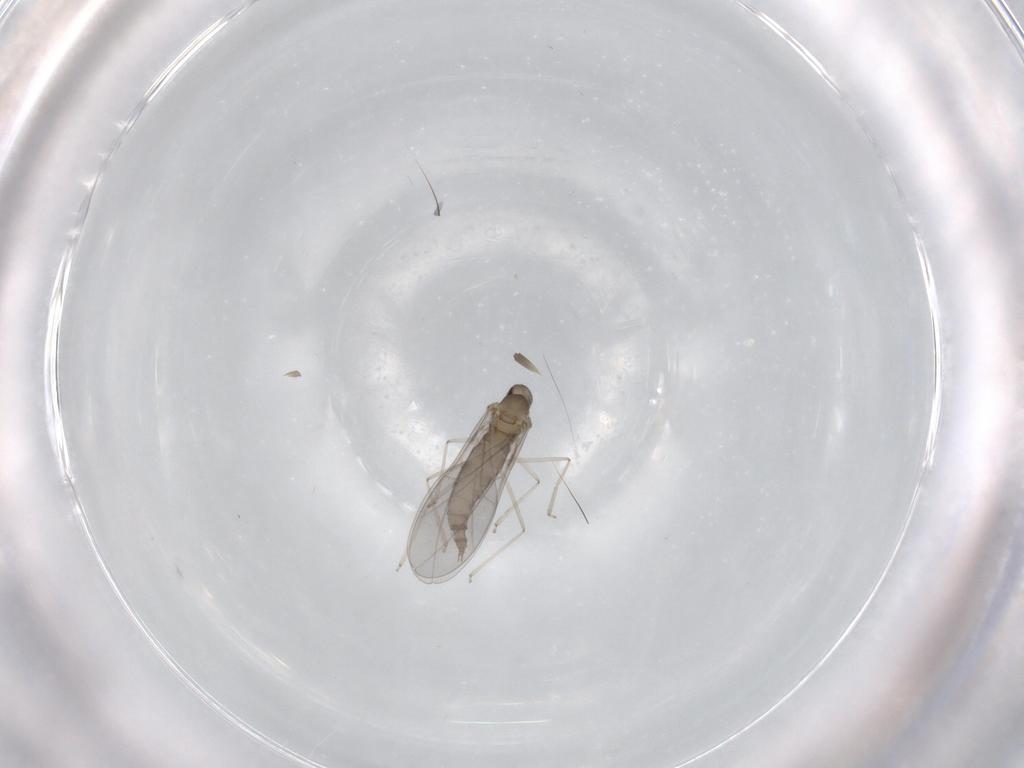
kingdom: Animalia
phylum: Arthropoda
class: Insecta
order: Diptera
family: Cecidomyiidae
